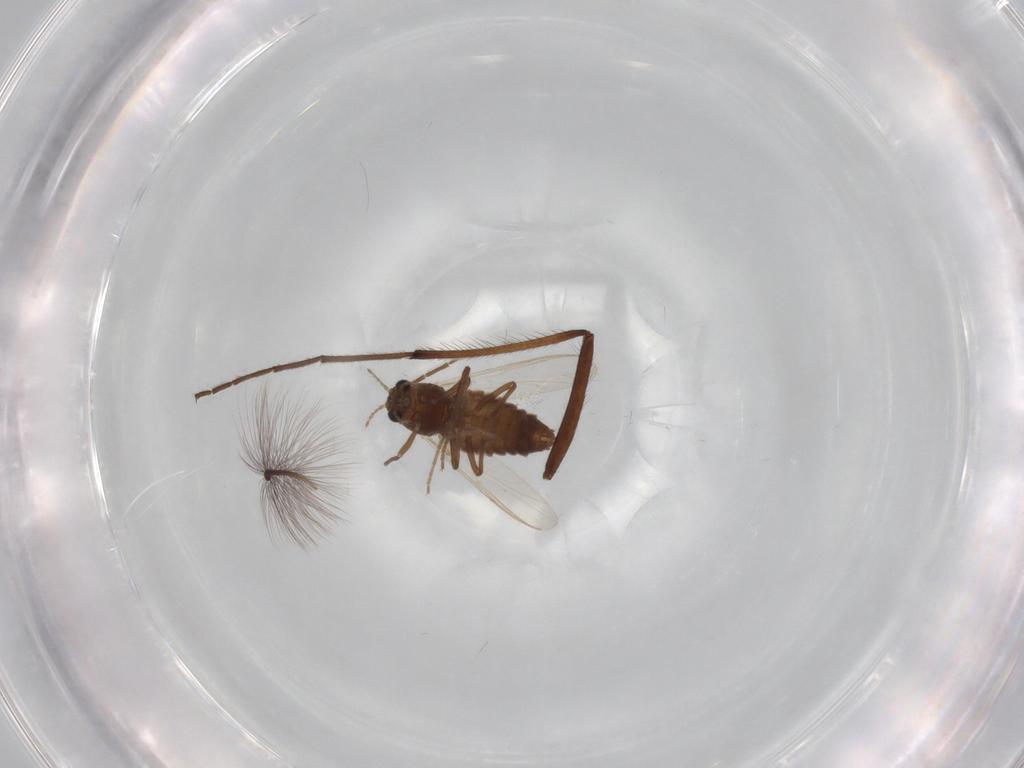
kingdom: Animalia
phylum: Arthropoda
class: Insecta
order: Diptera
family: Chironomidae
